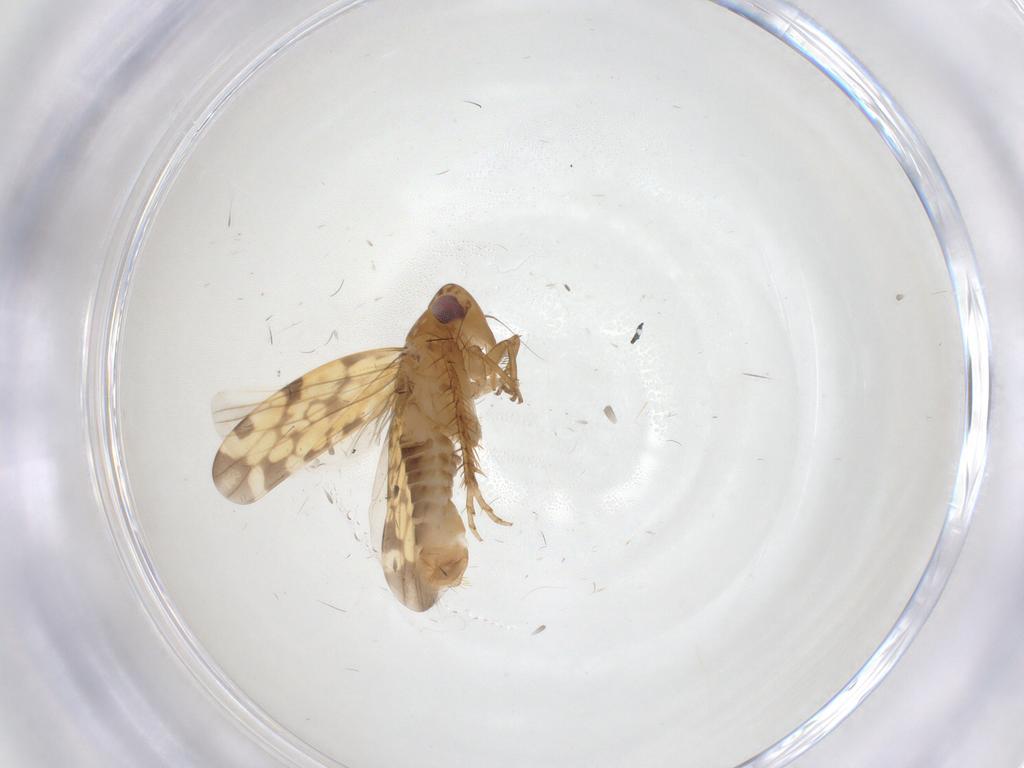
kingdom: Animalia
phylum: Arthropoda
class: Insecta
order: Hemiptera
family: Cicadellidae
